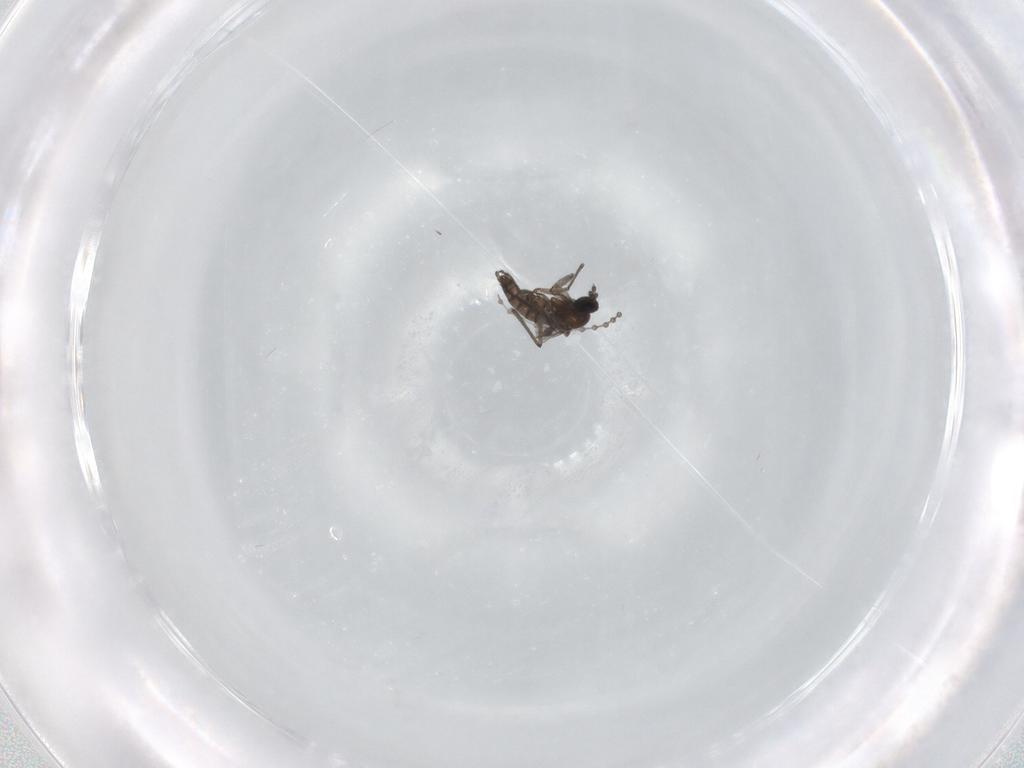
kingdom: Animalia
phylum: Arthropoda
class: Insecta
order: Diptera
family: Sciaridae
